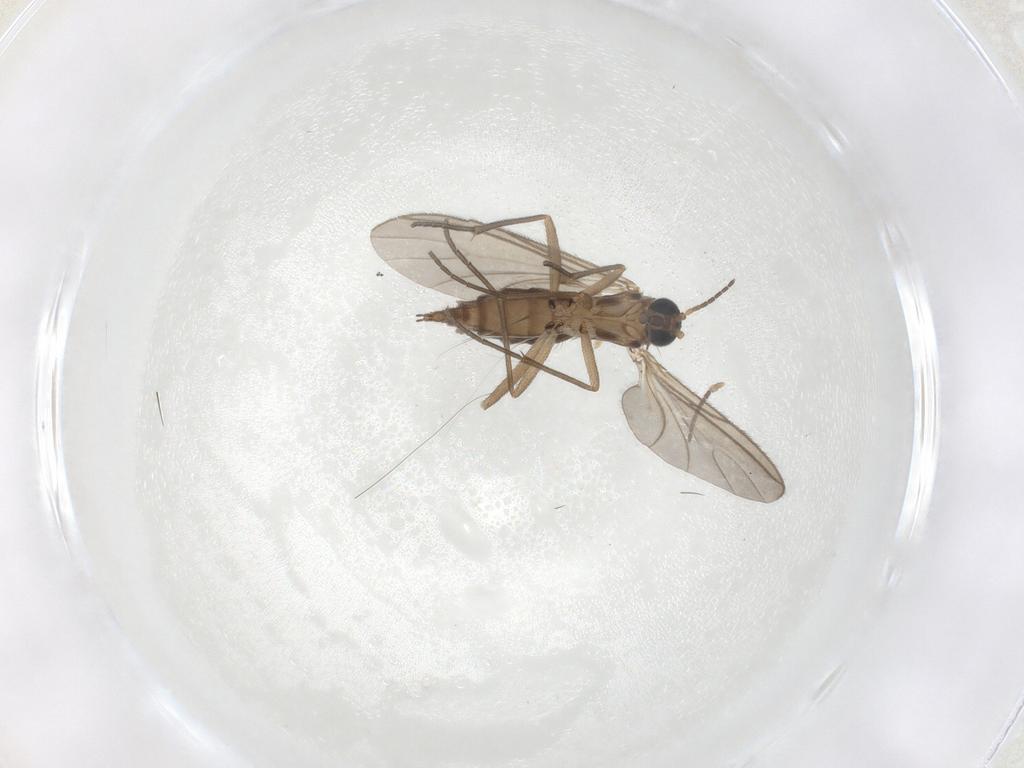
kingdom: Animalia
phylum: Arthropoda
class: Insecta
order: Diptera
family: Sciaridae
